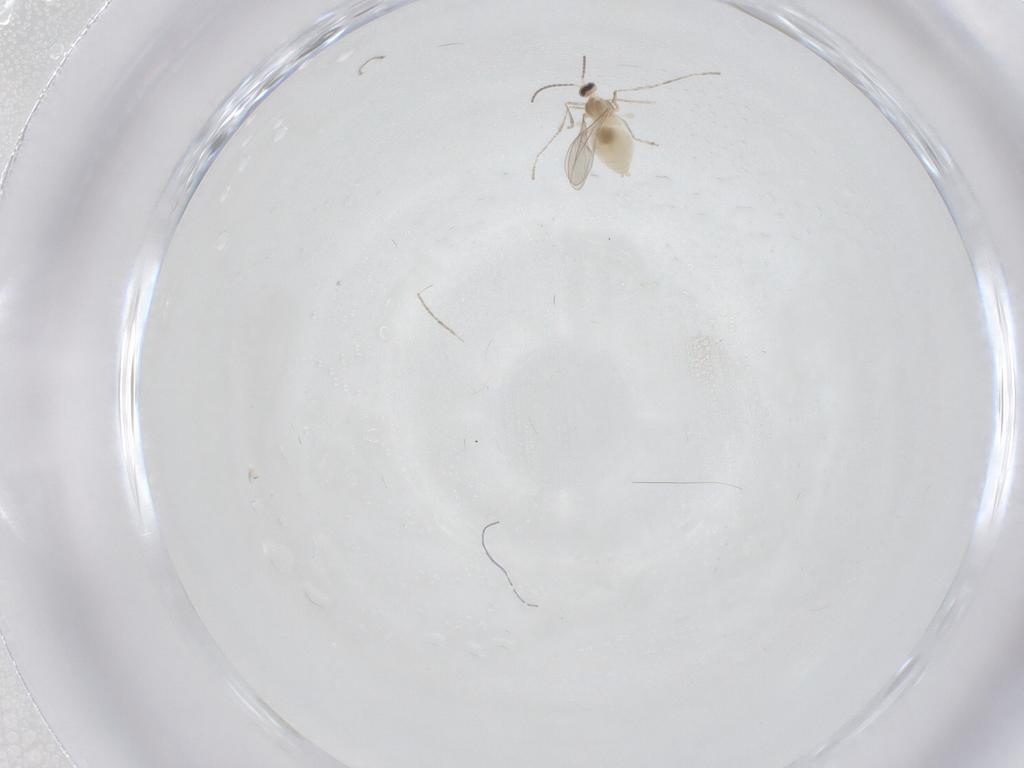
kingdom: Animalia
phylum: Arthropoda
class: Insecta
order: Diptera
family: Cecidomyiidae
